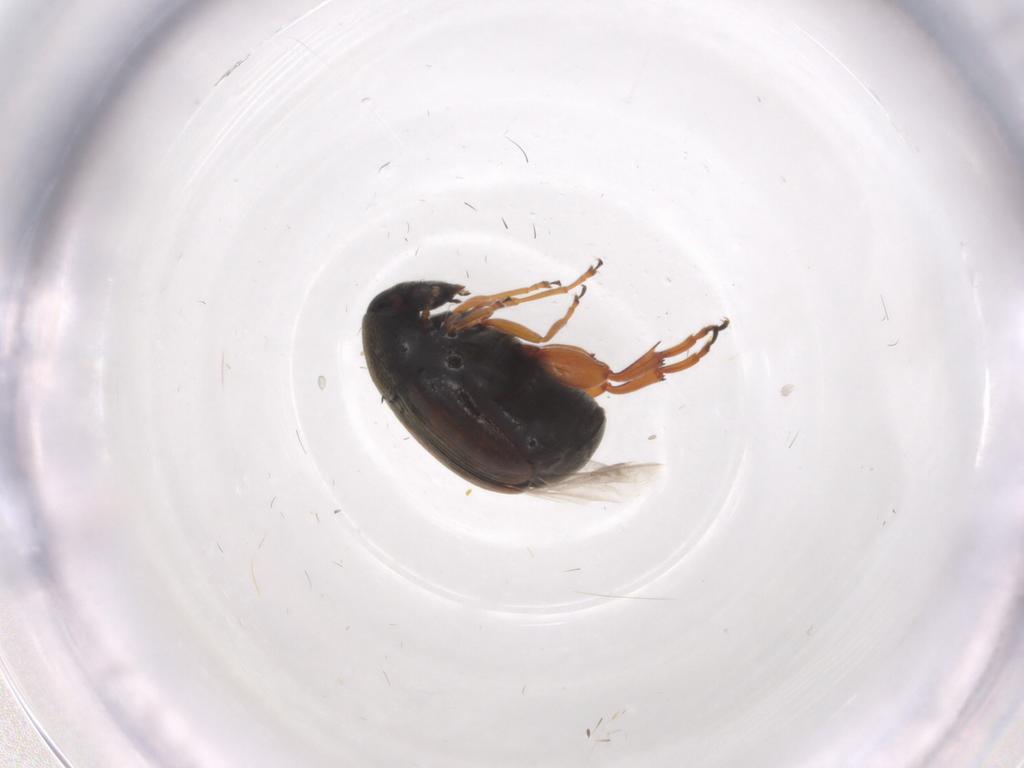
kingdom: Animalia
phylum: Arthropoda
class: Insecta
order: Coleoptera
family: Chrysomelidae
